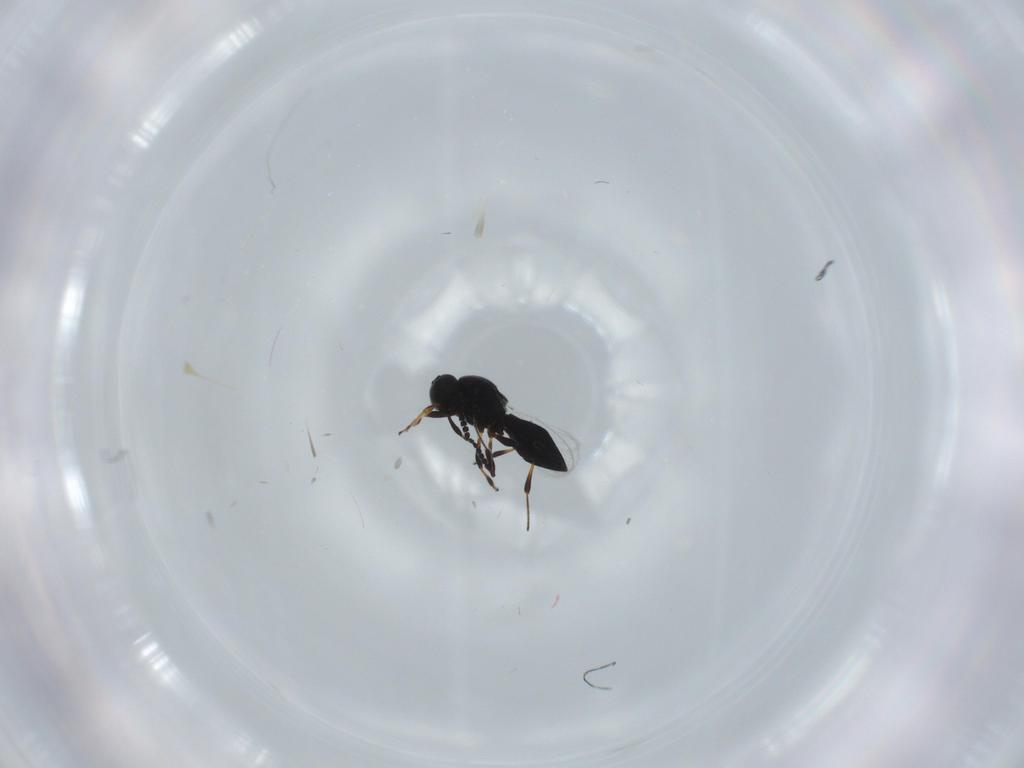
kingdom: Animalia
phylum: Arthropoda
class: Insecta
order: Hymenoptera
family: Platygastridae
